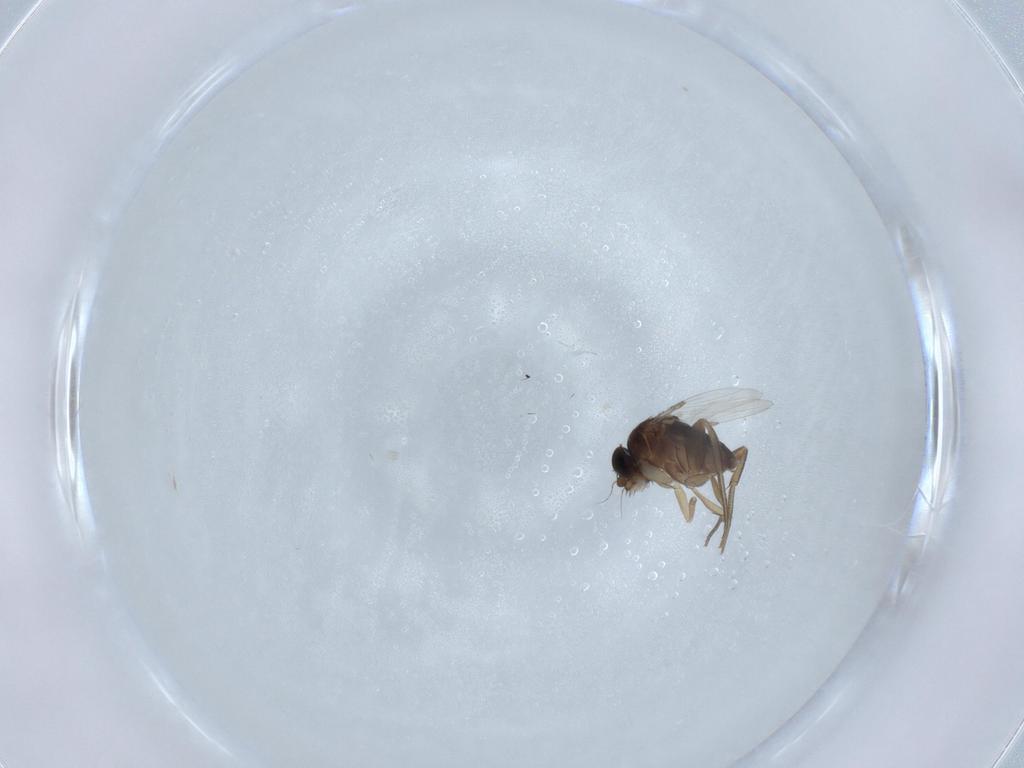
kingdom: Animalia
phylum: Arthropoda
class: Insecta
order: Diptera
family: Phoridae
